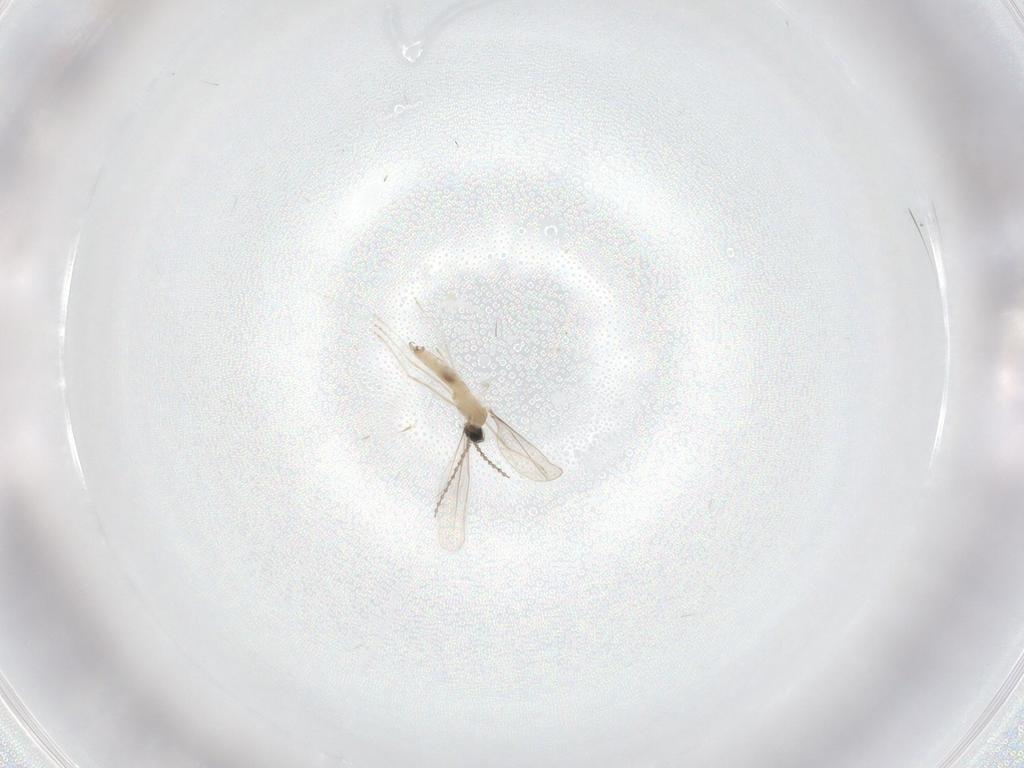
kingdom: Animalia
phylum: Arthropoda
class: Insecta
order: Diptera
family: Cecidomyiidae
